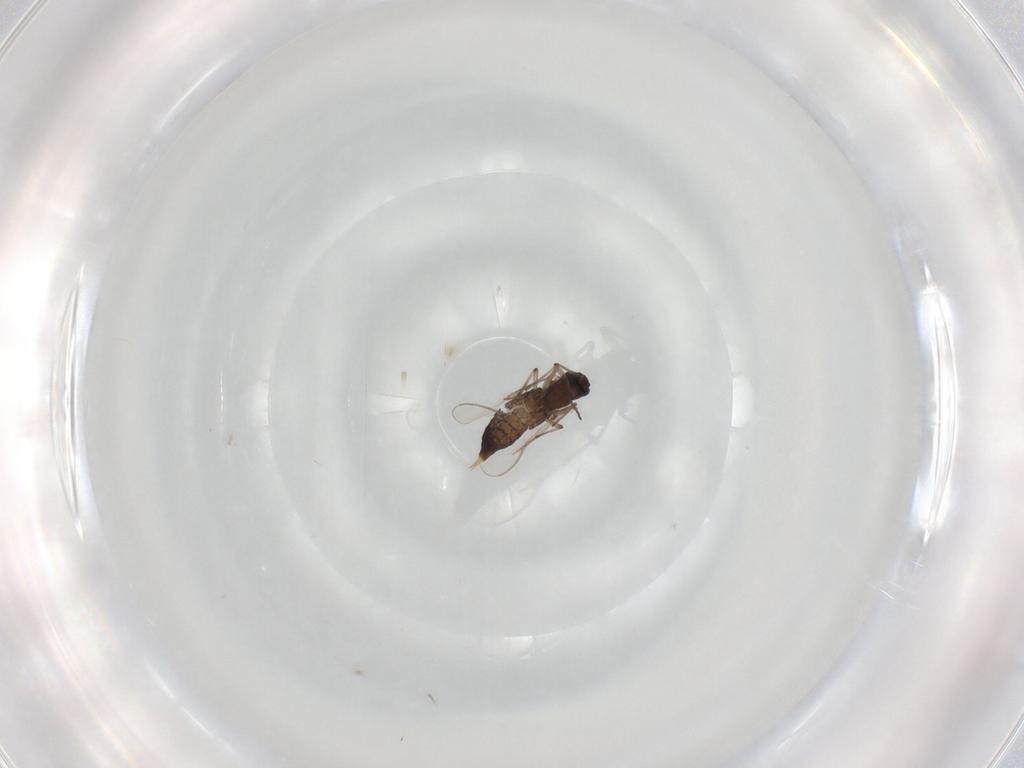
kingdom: Animalia
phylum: Arthropoda
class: Insecta
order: Diptera
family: Chironomidae
